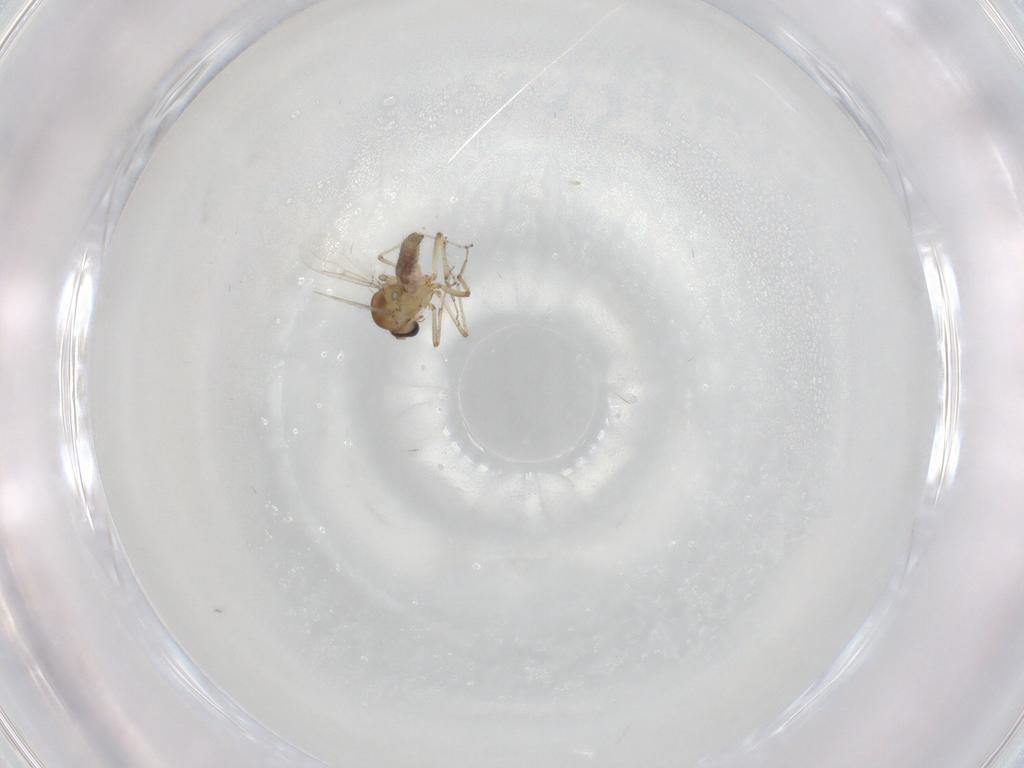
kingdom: Animalia
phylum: Arthropoda
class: Insecta
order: Diptera
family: Ceratopogonidae
